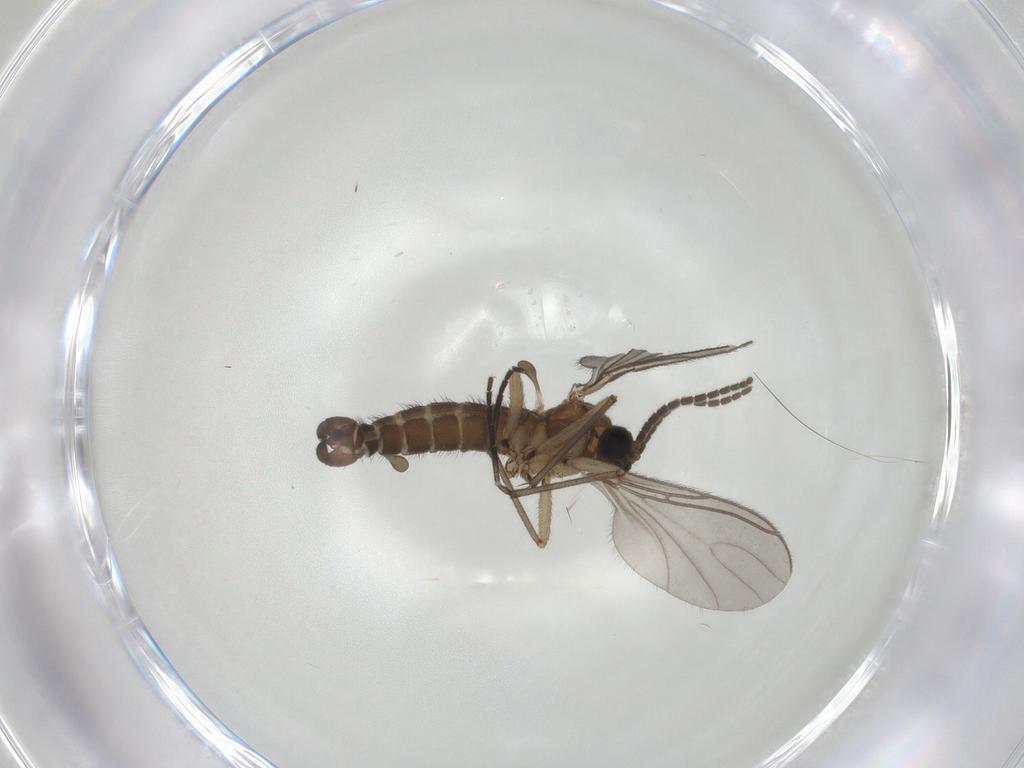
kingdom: Animalia
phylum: Arthropoda
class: Insecta
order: Diptera
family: Sciaridae
